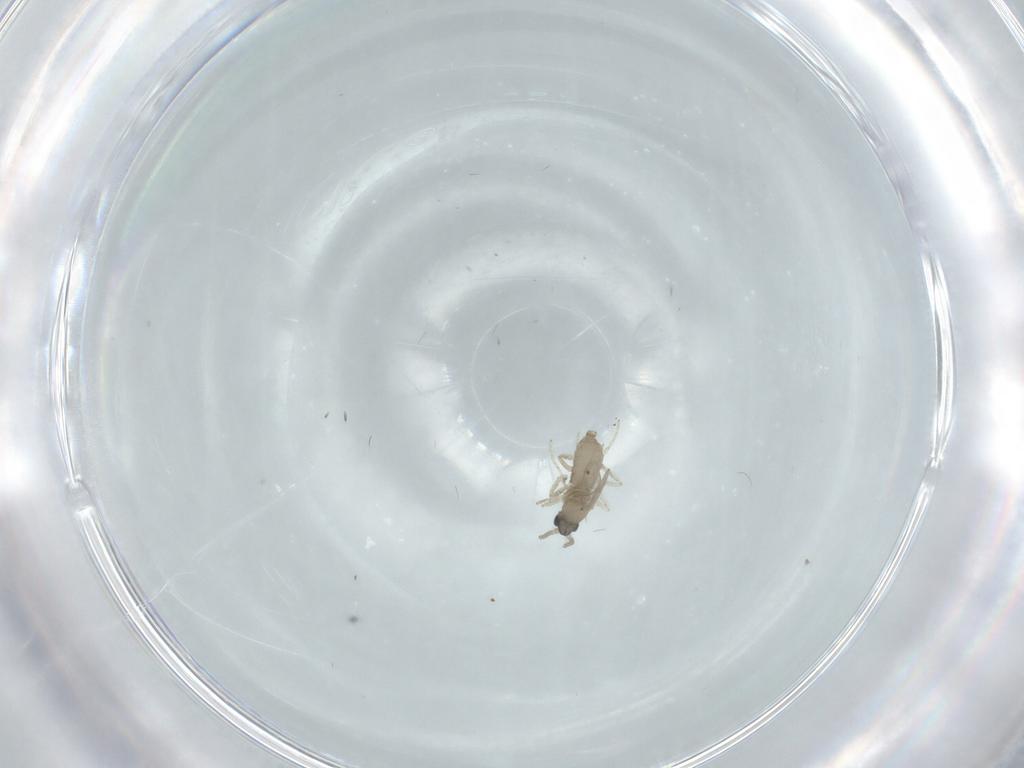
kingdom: Animalia
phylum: Arthropoda
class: Insecta
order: Diptera
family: Cecidomyiidae
